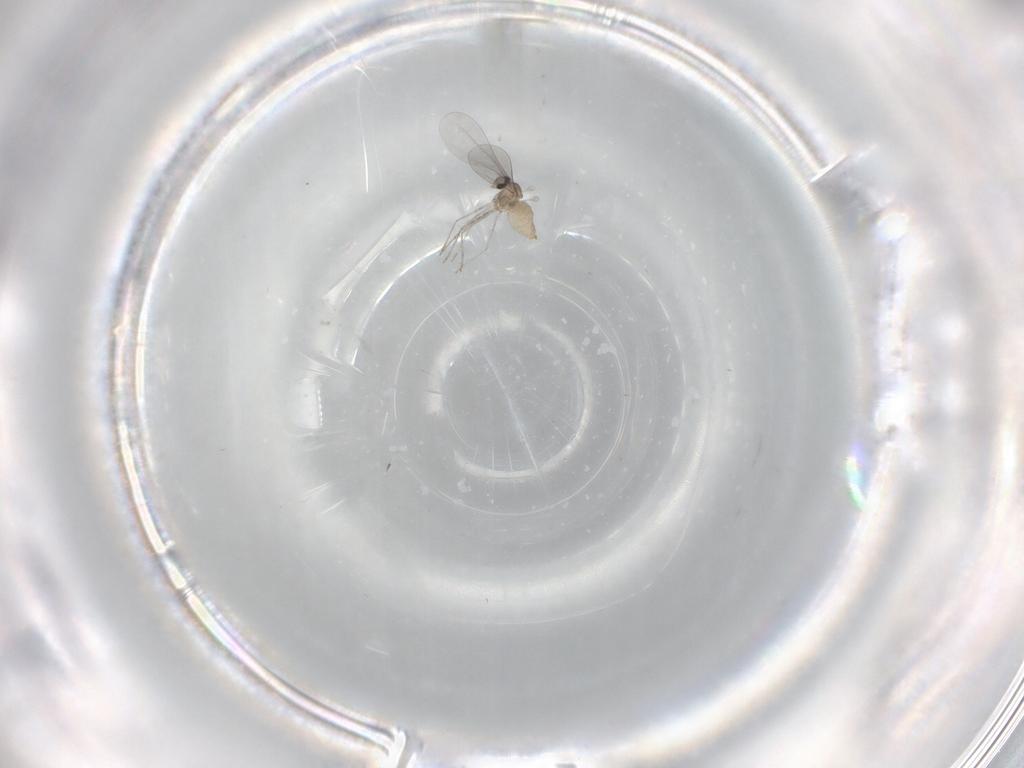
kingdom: Animalia
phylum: Arthropoda
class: Insecta
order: Diptera
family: Cecidomyiidae
